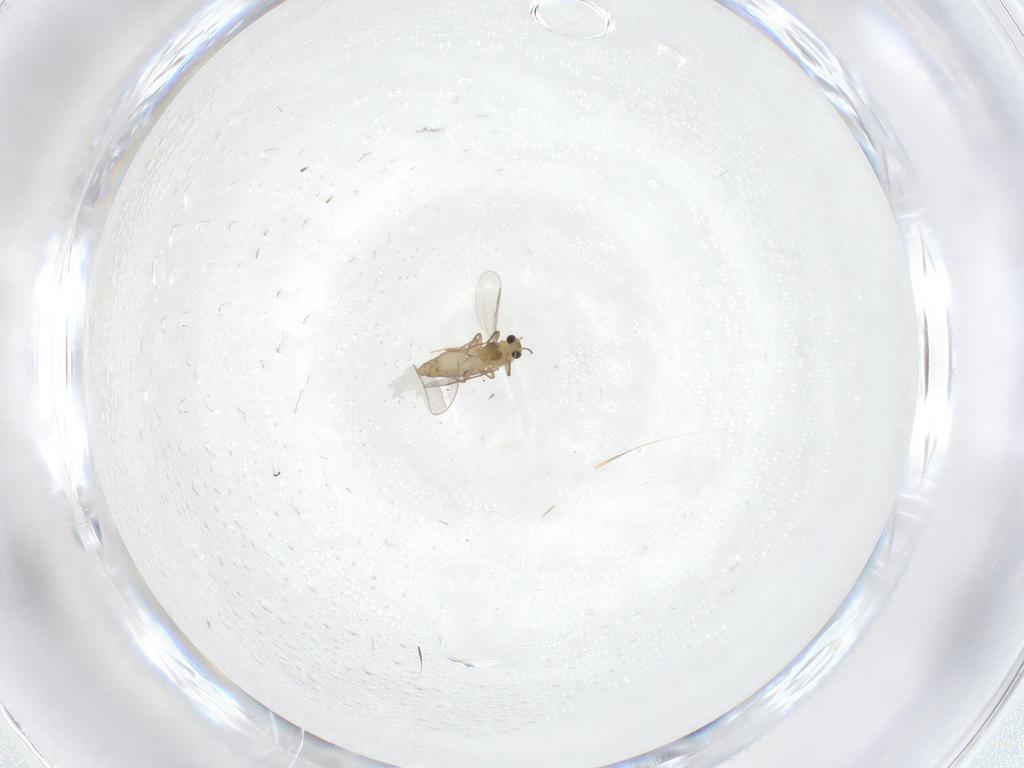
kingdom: Animalia
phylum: Arthropoda
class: Insecta
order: Diptera
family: Chironomidae
